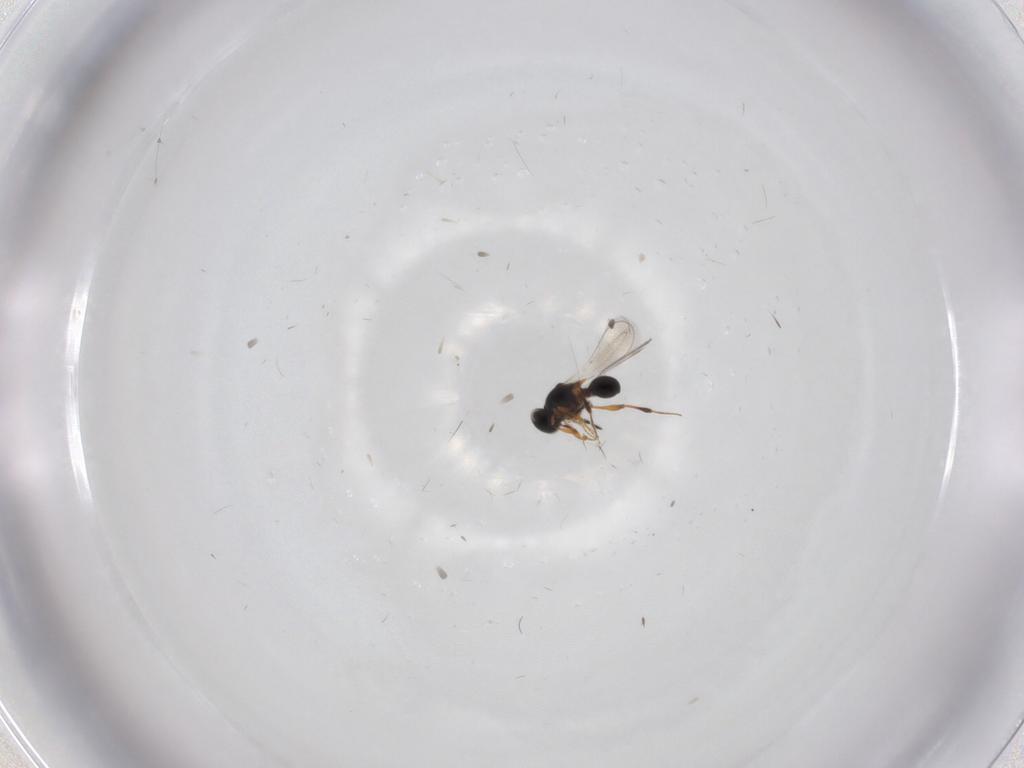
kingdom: Animalia
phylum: Arthropoda
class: Insecta
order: Hymenoptera
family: Platygastridae
